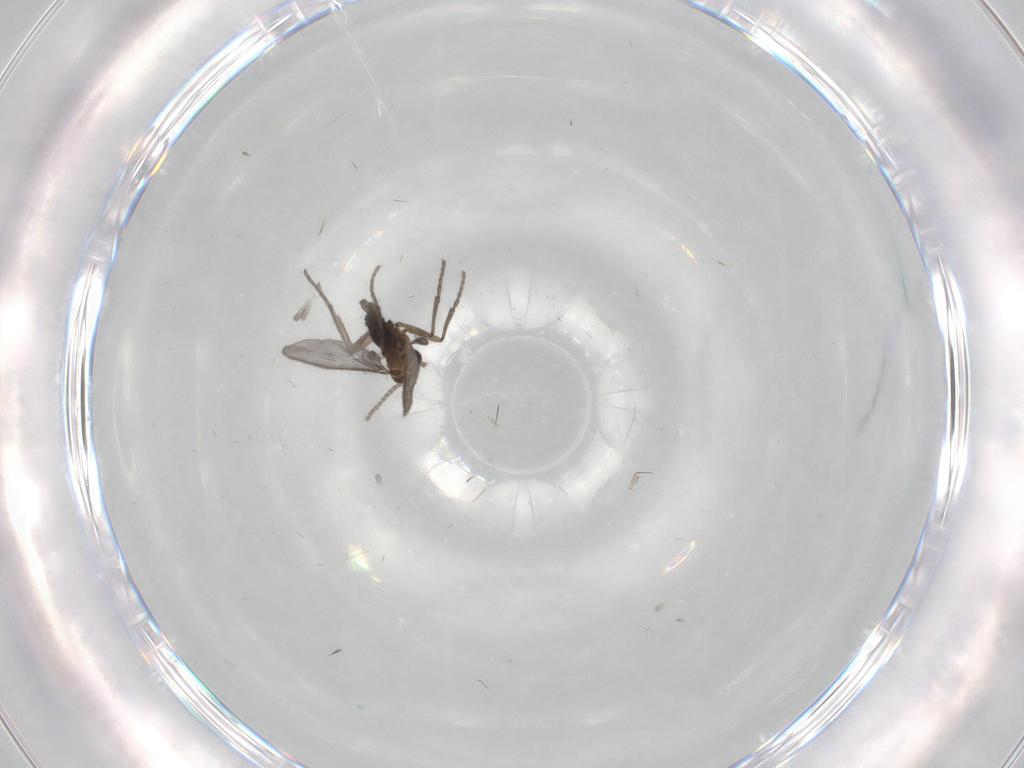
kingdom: Animalia
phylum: Arthropoda
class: Insecta
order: Diptera
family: Sciaridae
